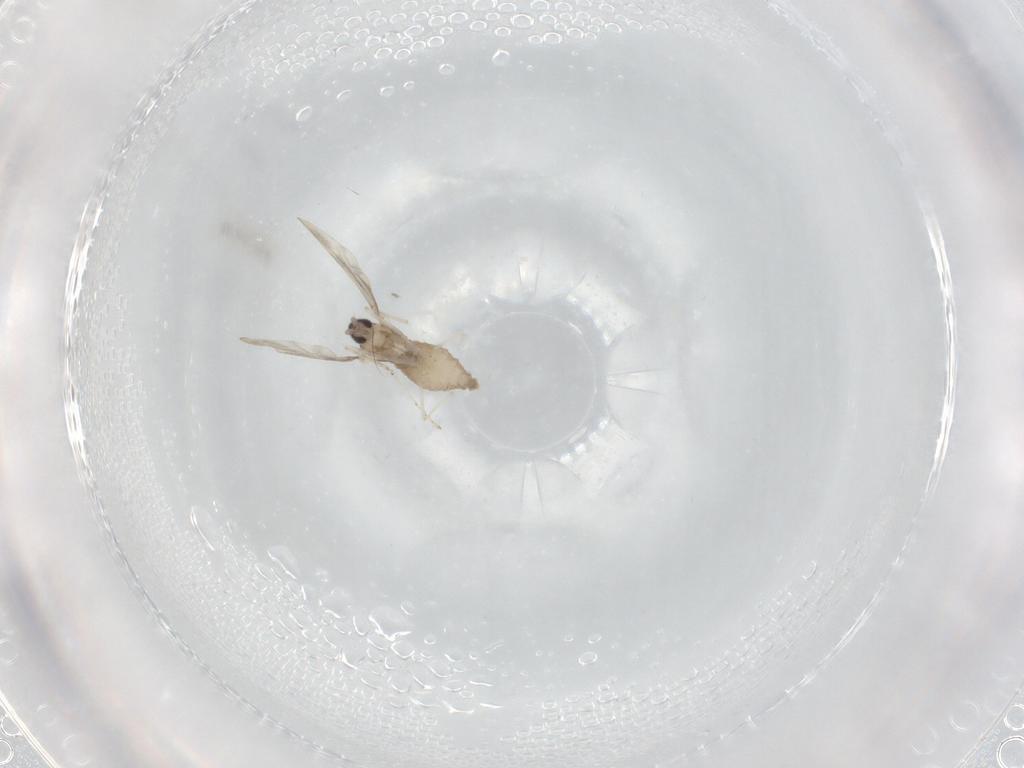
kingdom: Animalia
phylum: Arthropoda
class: Insecta
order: Diptera
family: Cecidomyiidae
